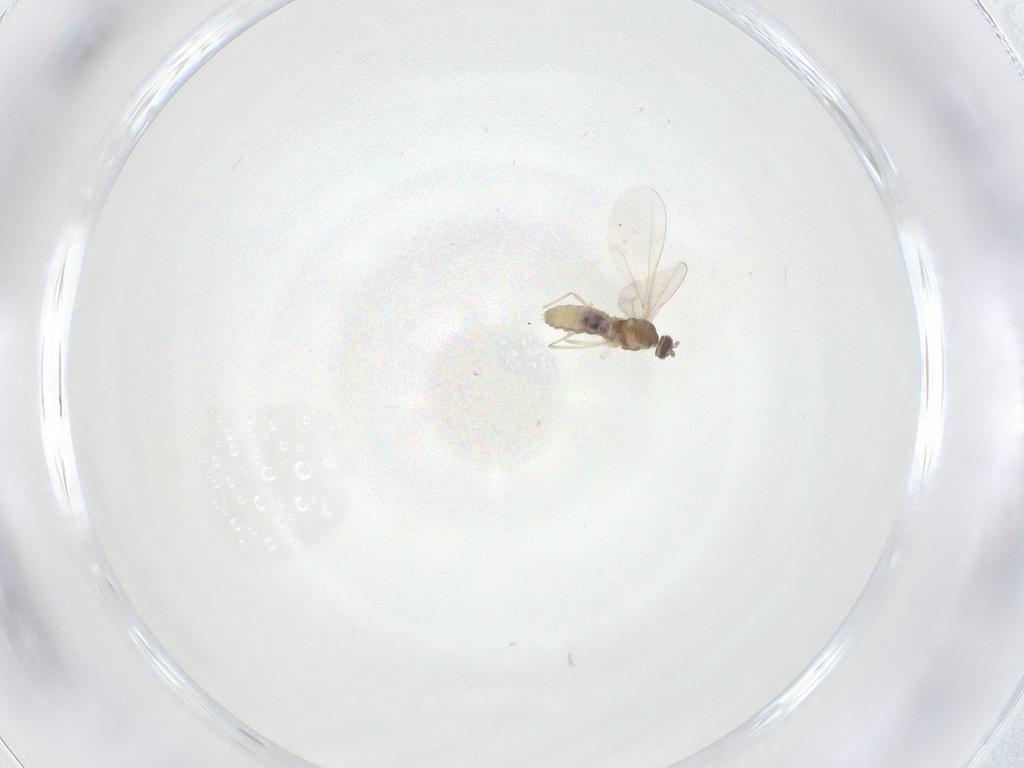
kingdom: Animalia
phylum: Arthropoda
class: Insecta
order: Diptera
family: Cecidomyiidae
